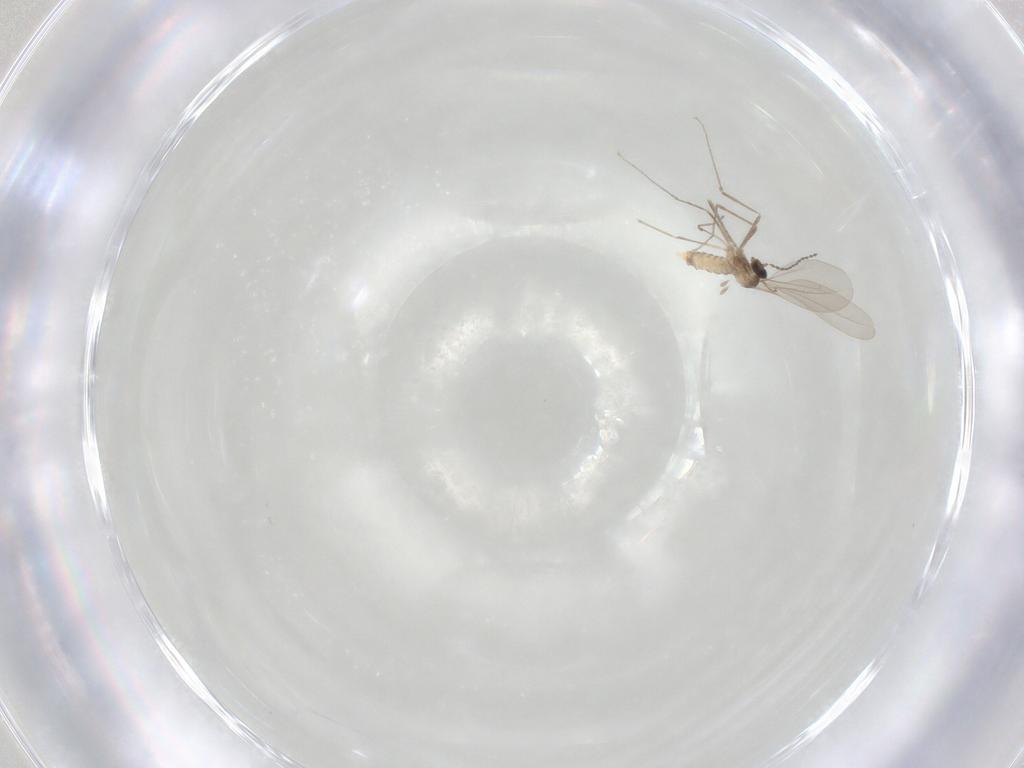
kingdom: Animalia
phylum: Arthropoda
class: Insecta
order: Diptera
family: Cecidomyiidae
